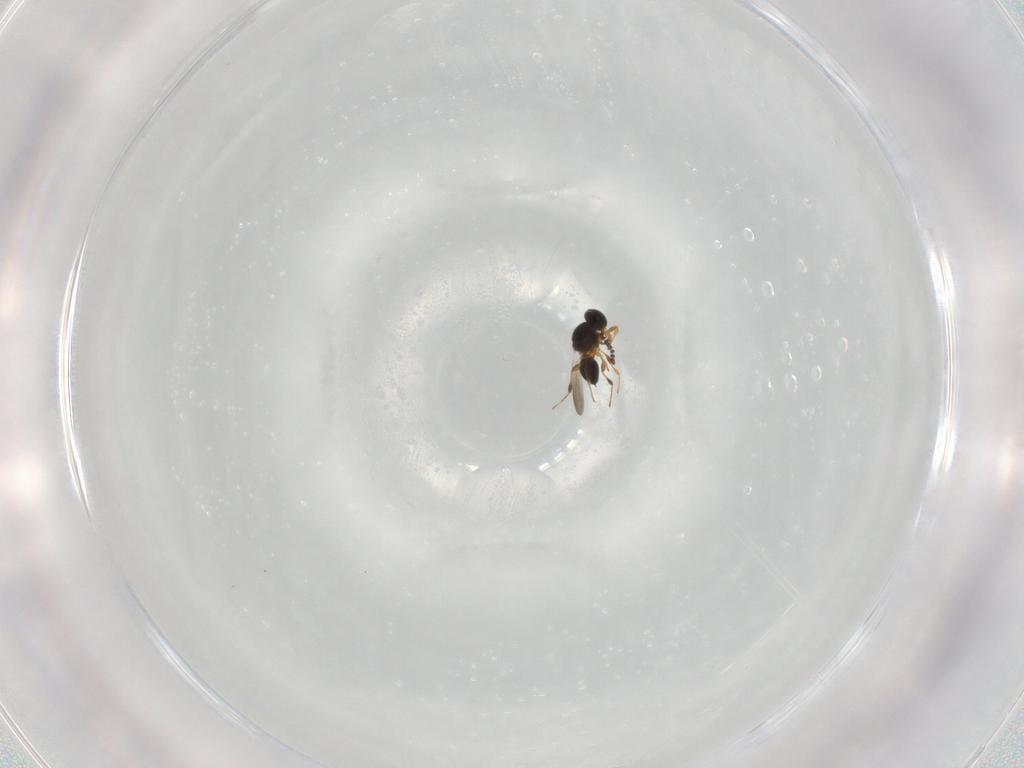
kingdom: Animalia
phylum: Arthropoda
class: Insecta
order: Hymenoptera
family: Platygastridae
